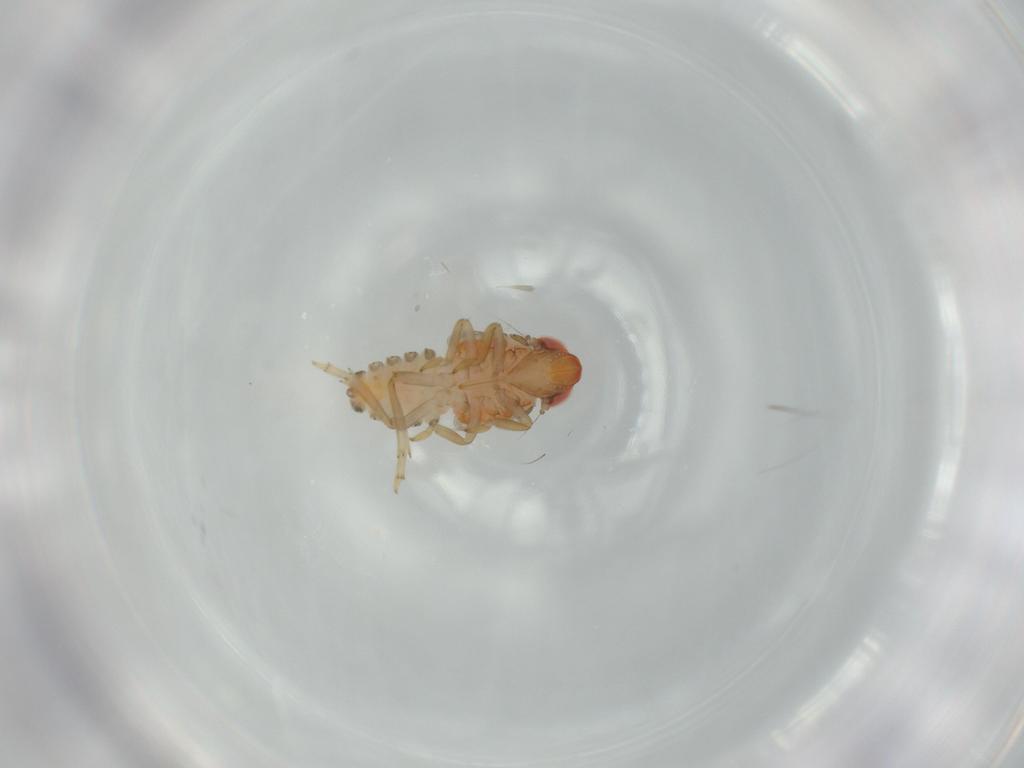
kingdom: Animalia
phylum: Arthropoda
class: Insecta
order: Hemiptera
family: Fulgoroidea_incertae_sedis
